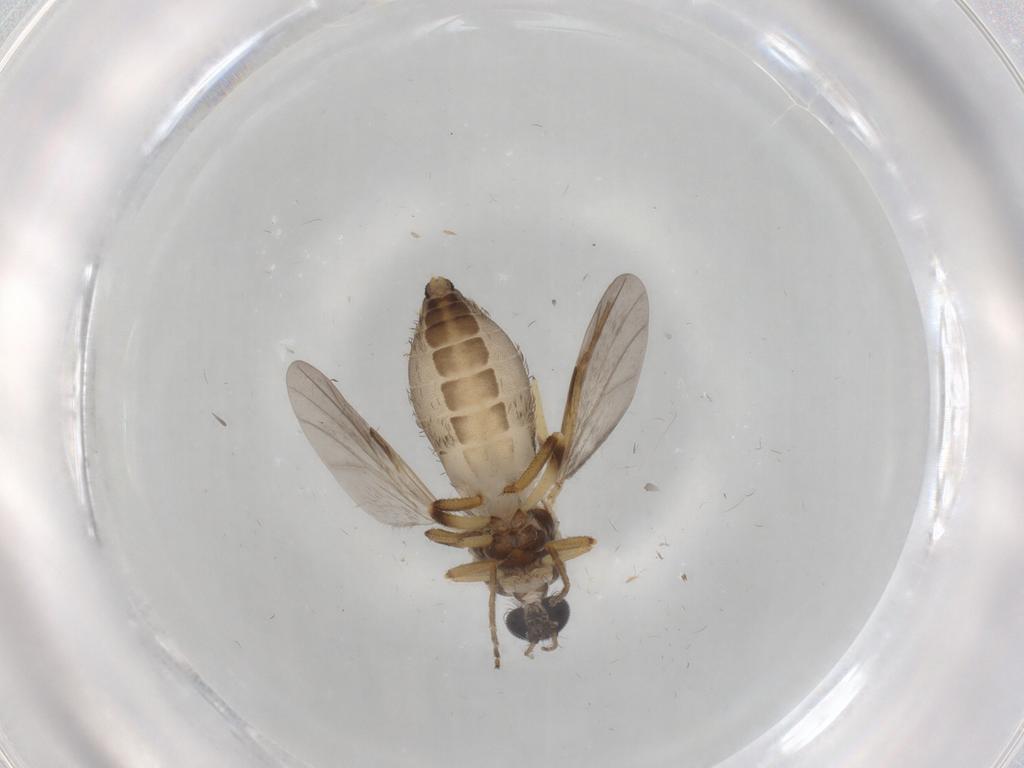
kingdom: Animalia
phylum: Arthropoda
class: Insecta
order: Diptera
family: Ceratopogonidae
